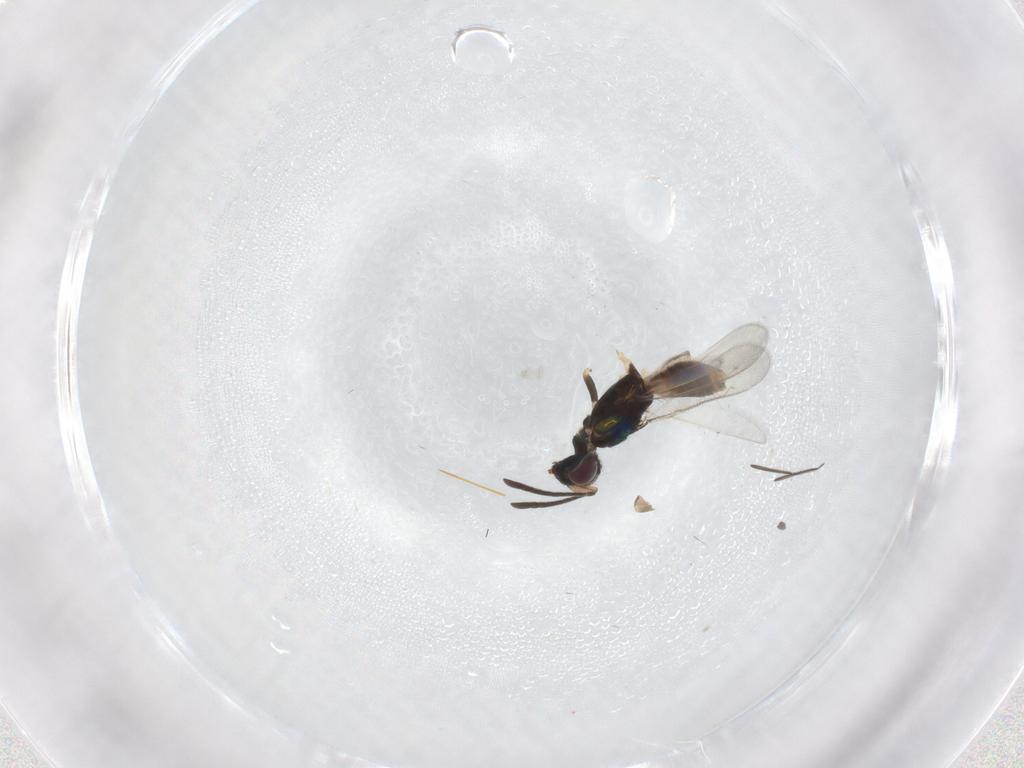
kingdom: Animalia
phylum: Arthropoda
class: Insecta
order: Hymenoptera
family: Eupelmidae
